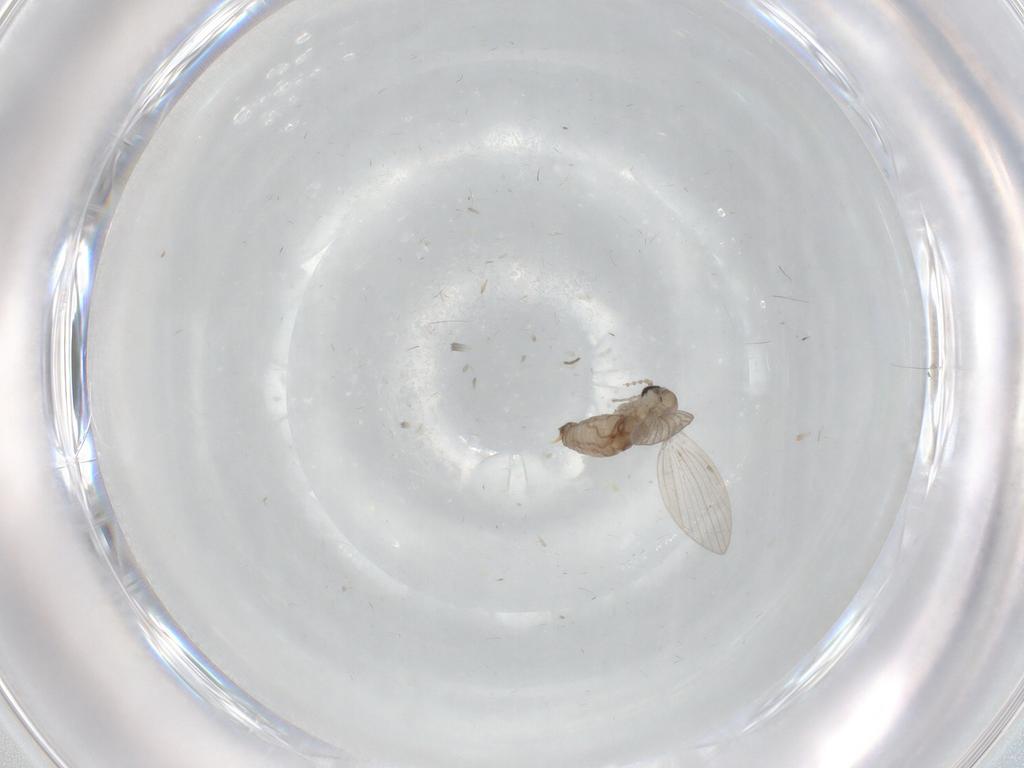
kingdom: Animalia
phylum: Arthropoda
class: Insecta
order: Diptera
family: Psychodidae
